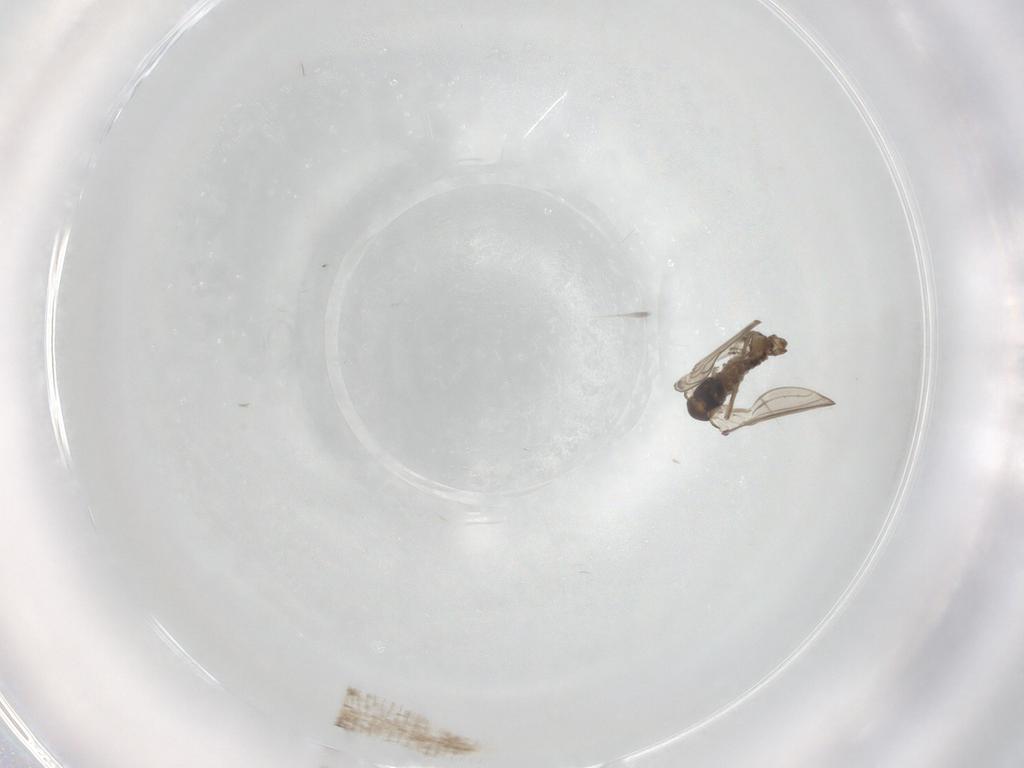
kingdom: Animalia
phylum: Arthropoda
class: Insecta
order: Diptera
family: Psychodidae
